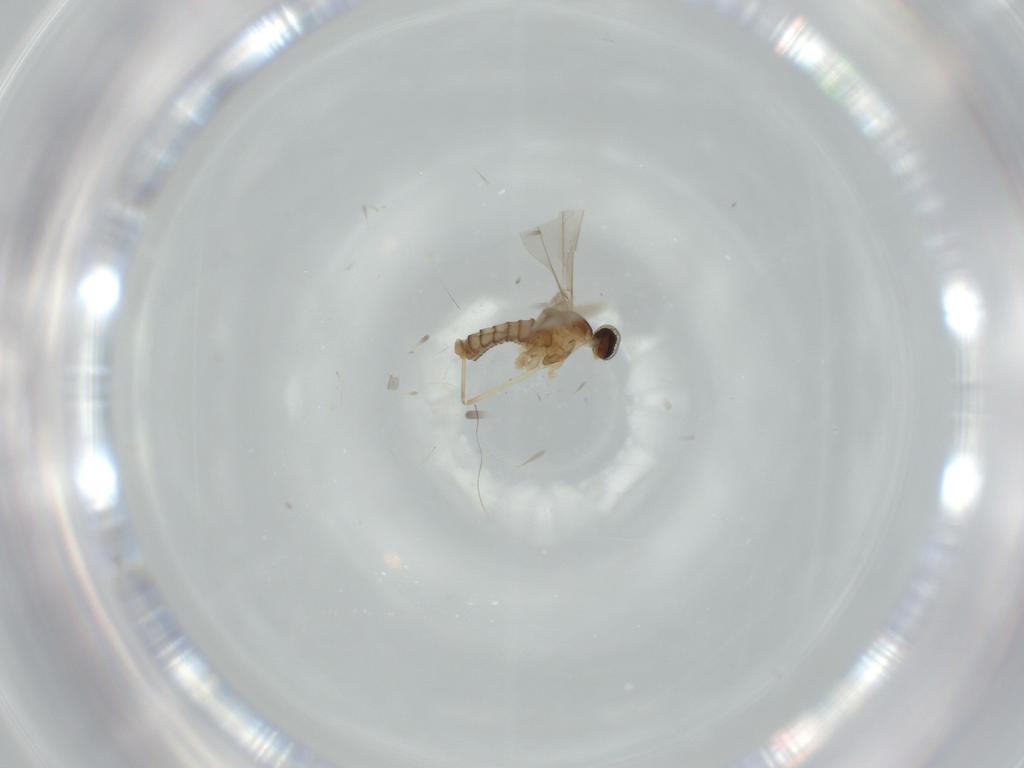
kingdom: Animalia
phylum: Arthropoda
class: Insecta
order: Diptera
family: Cecidomyiidae
